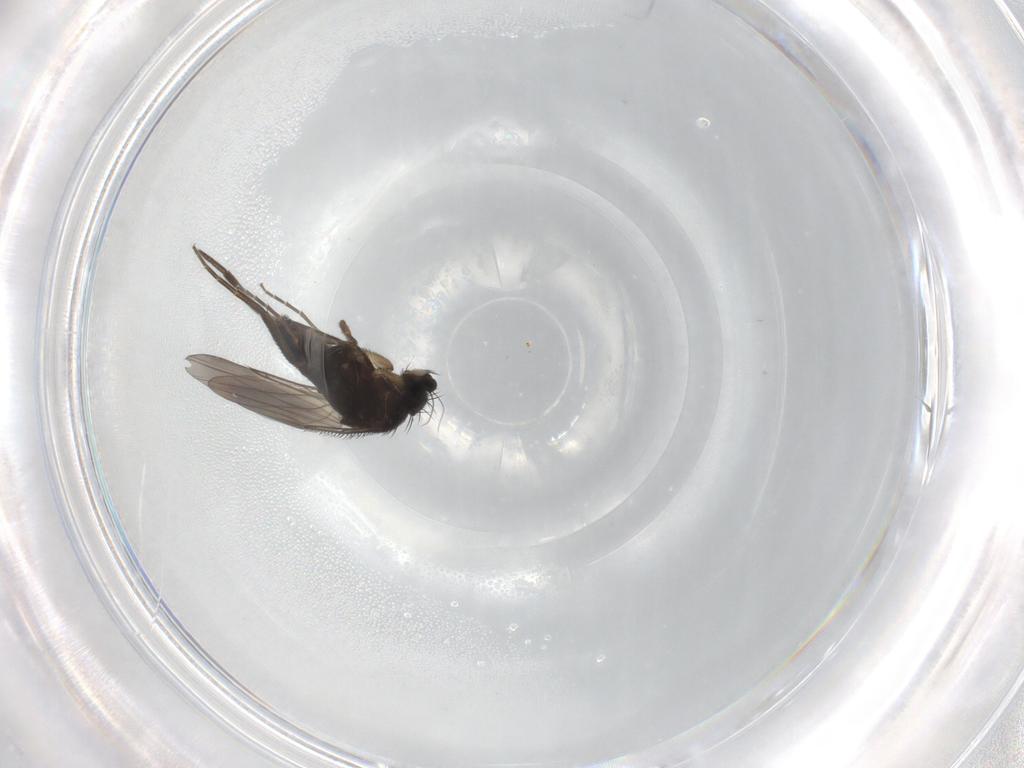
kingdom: Animalia
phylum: Arthropoda
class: Insecta
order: Diptera
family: Phoridae
